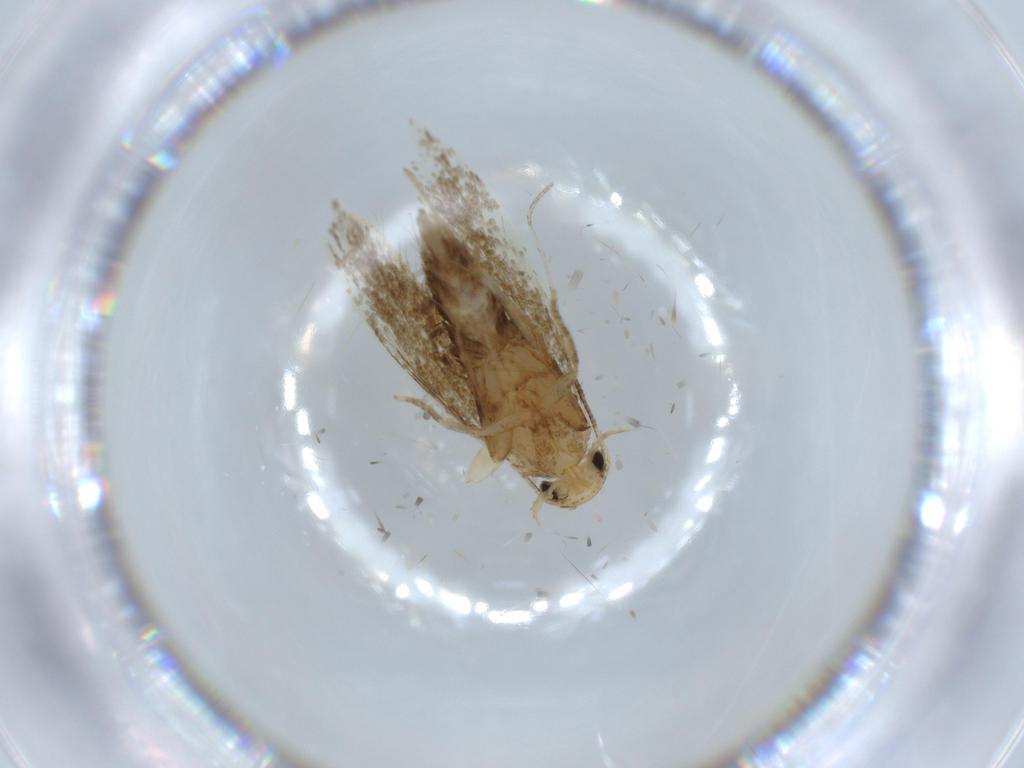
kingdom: Animalia
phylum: Arthropoda
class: Insecta
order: Lepidoptera
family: Tineidae
